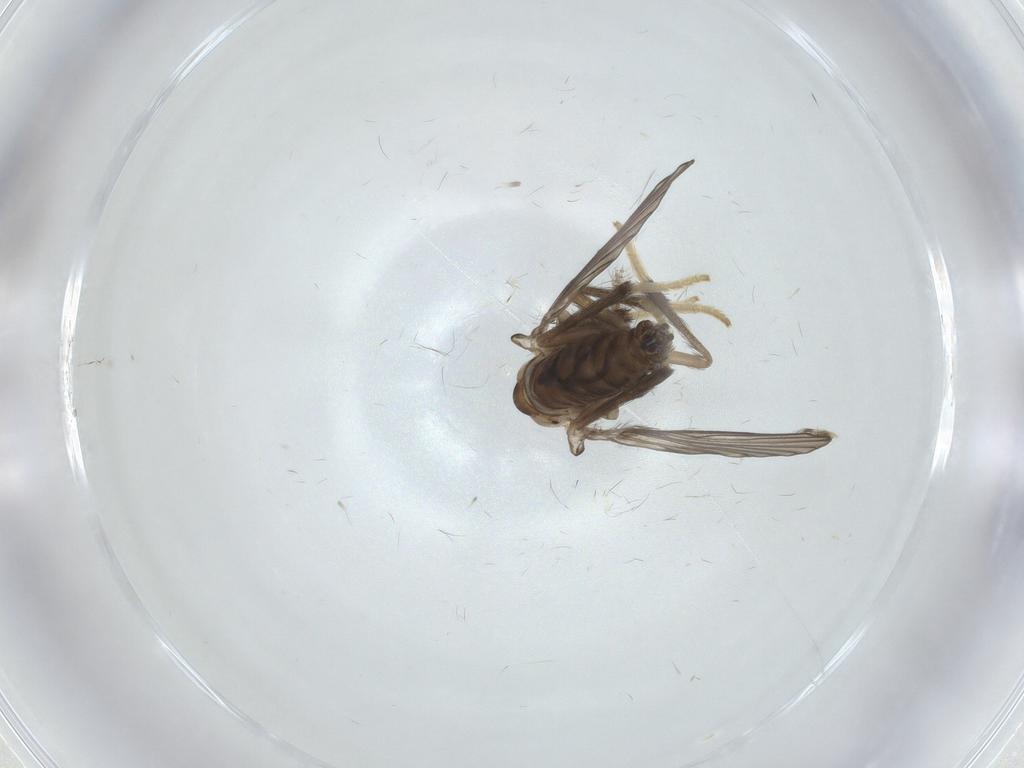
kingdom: Animalia
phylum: Arthropoda
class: Insecta
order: Diptera
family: Psychodidae
